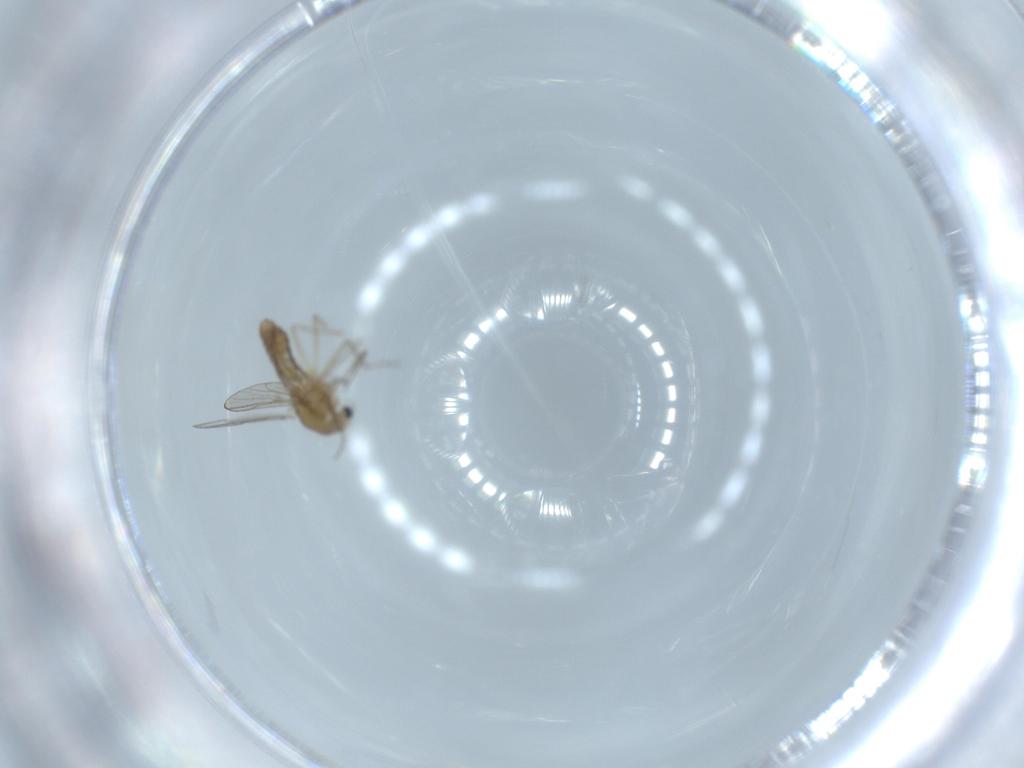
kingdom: Animalia
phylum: Arthropoda
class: Insecta
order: Diptera
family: Chironomidae
